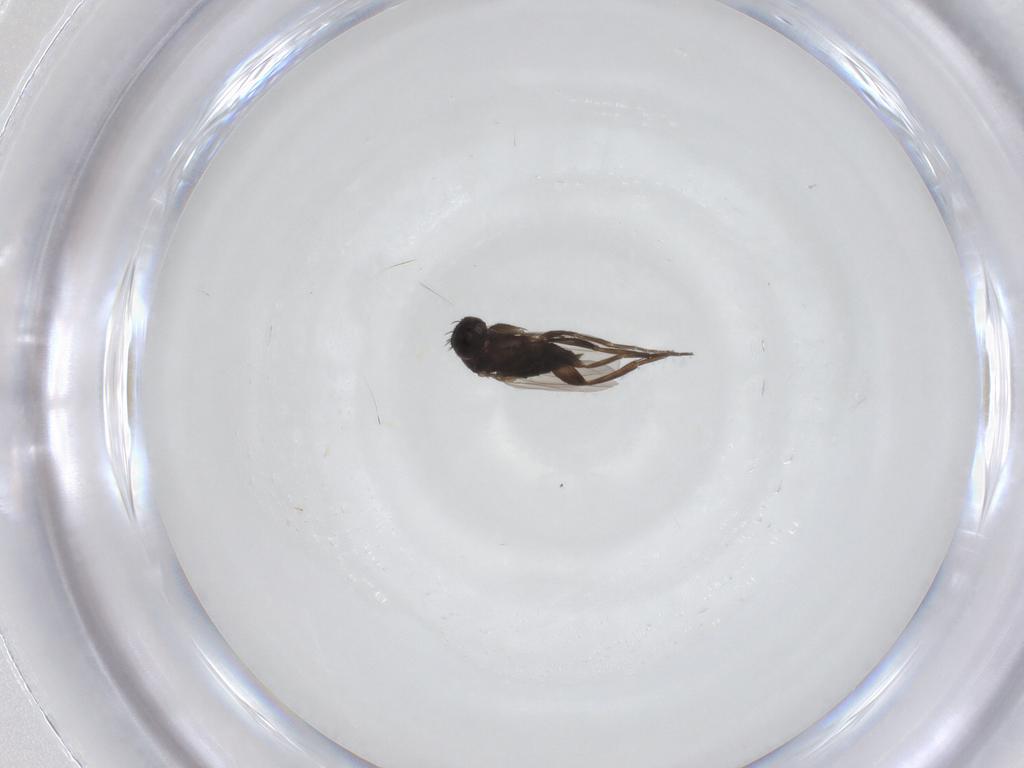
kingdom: Animalia
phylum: Arthropoda
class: Insecta
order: Diptera
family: Phoridae
